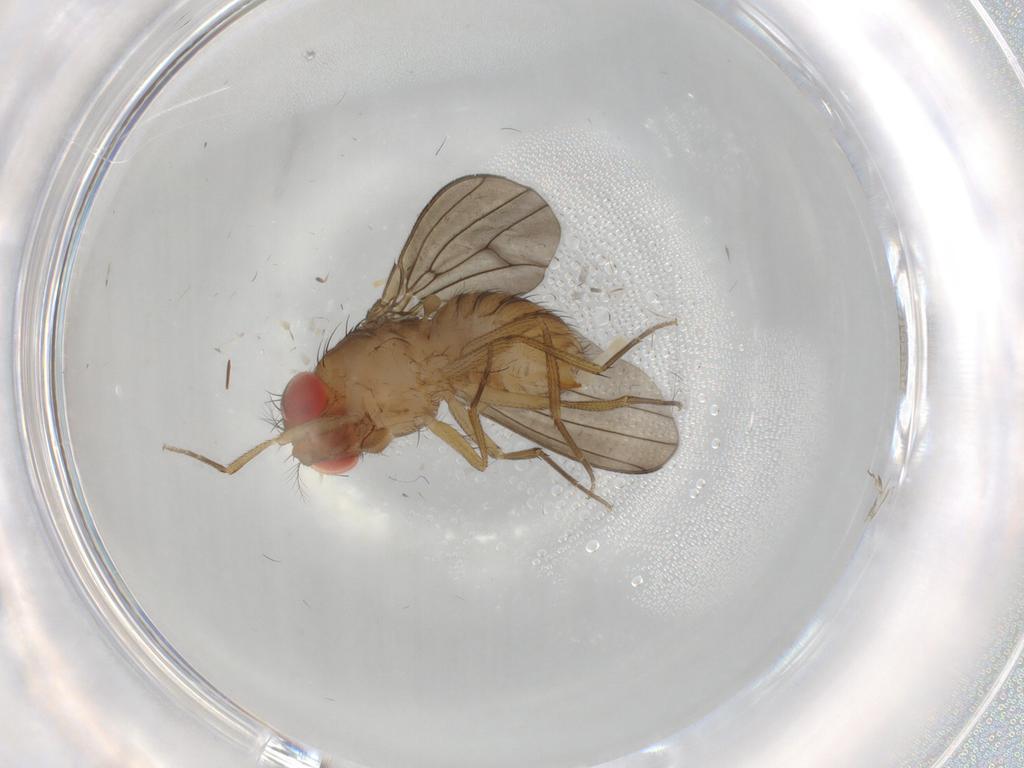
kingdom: Animalia
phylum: Arthropoda
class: Insecta
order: Diptera
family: Drosophilidae
